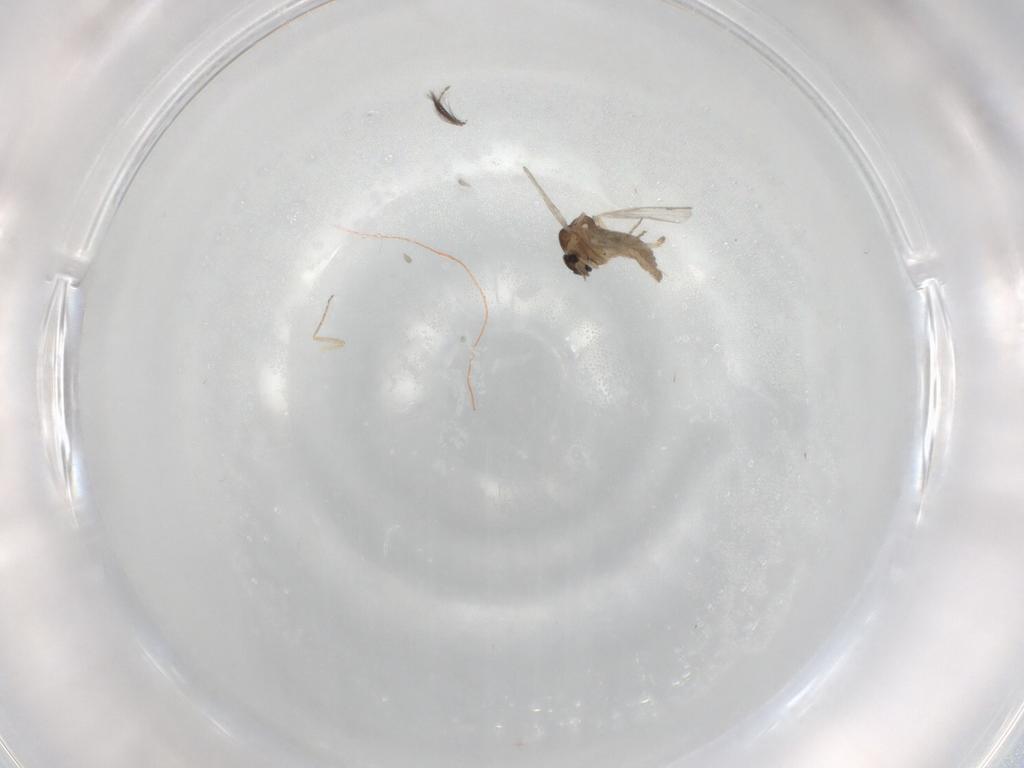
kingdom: Animalia
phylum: Arthropoda
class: Insecta
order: Diptera
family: Ceratopogonidae
